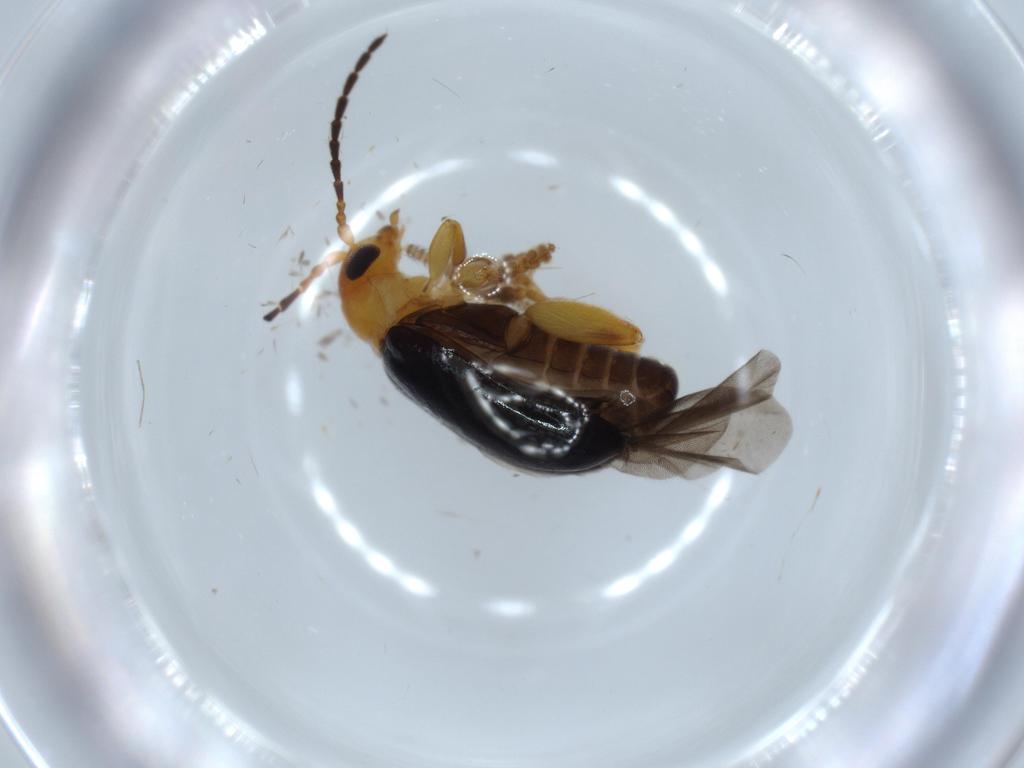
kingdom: Animalia
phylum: Arthropoda
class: Insecta
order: Coleoptera
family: Chrysomelidae
